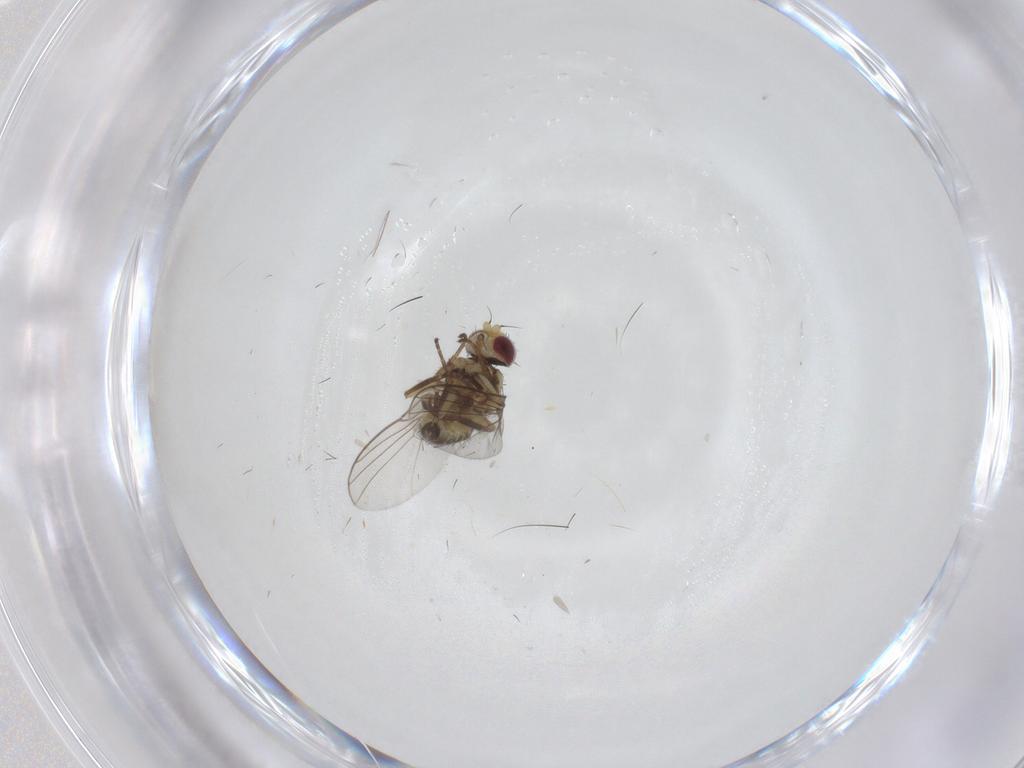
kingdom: Animalia
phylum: Arthropoda
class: Insecta
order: Diptera
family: Agromyzidae
